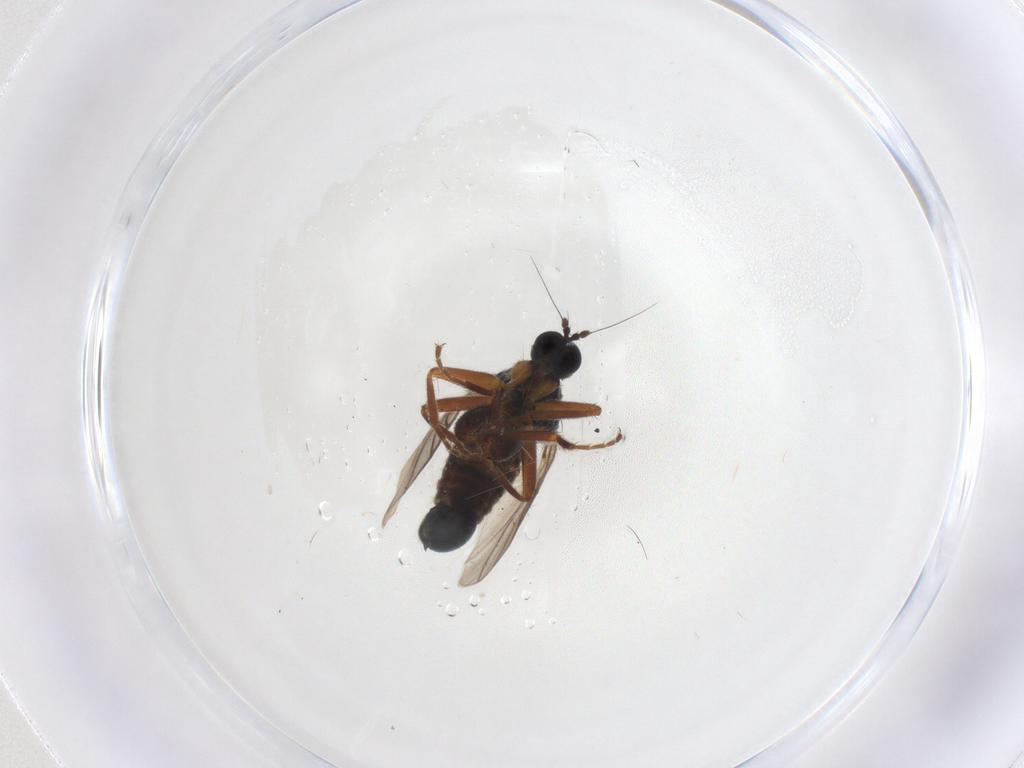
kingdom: Animalia
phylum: Arthropoda
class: Insecta
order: Diptera
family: Hybotidae
